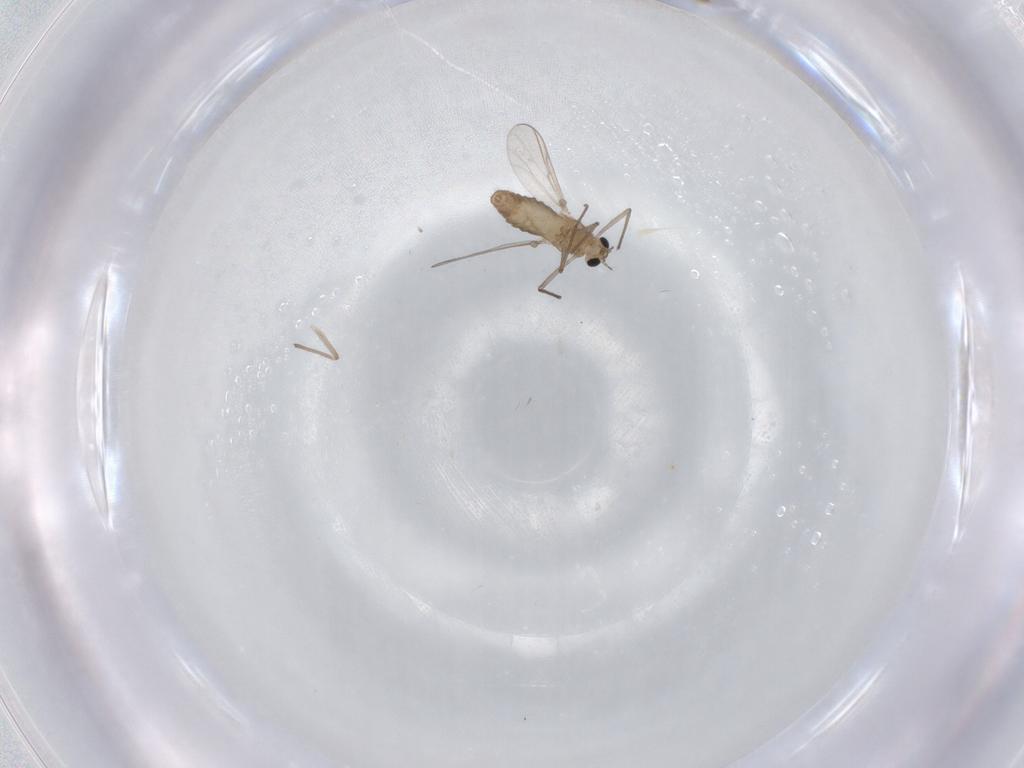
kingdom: Animalia
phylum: Arthropoda
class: Insecta
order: Diptera
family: Chironomidae
